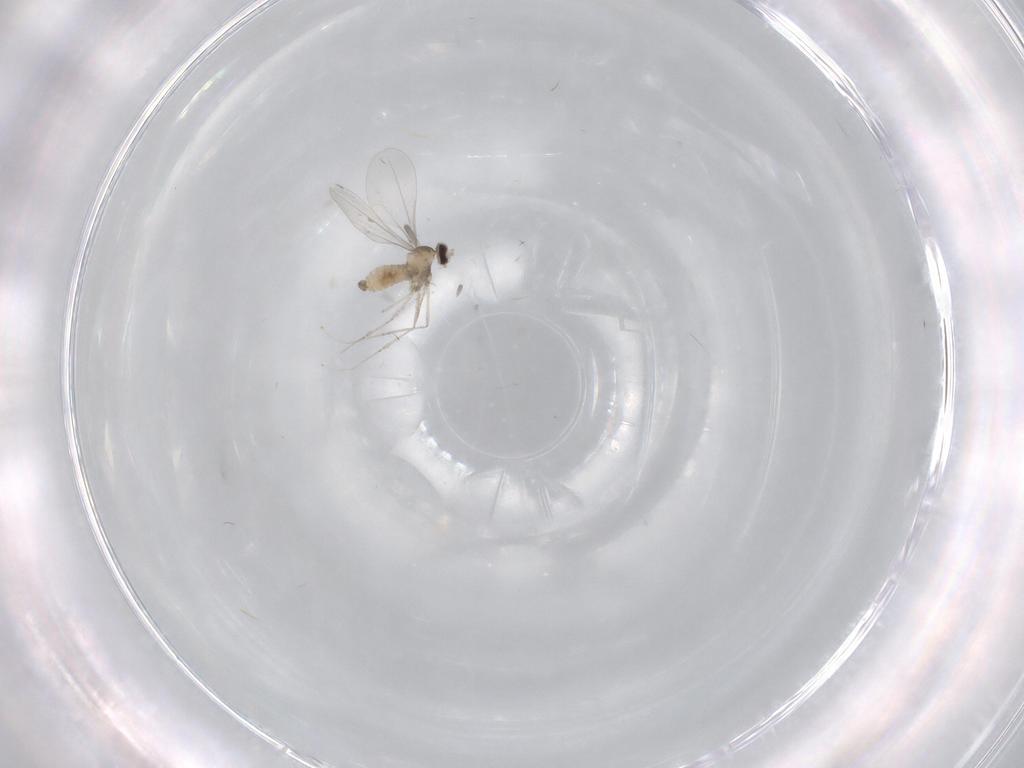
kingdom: Animalia
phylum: Arthropoda
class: Insecta
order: Diptera
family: Cecidomyiidae
